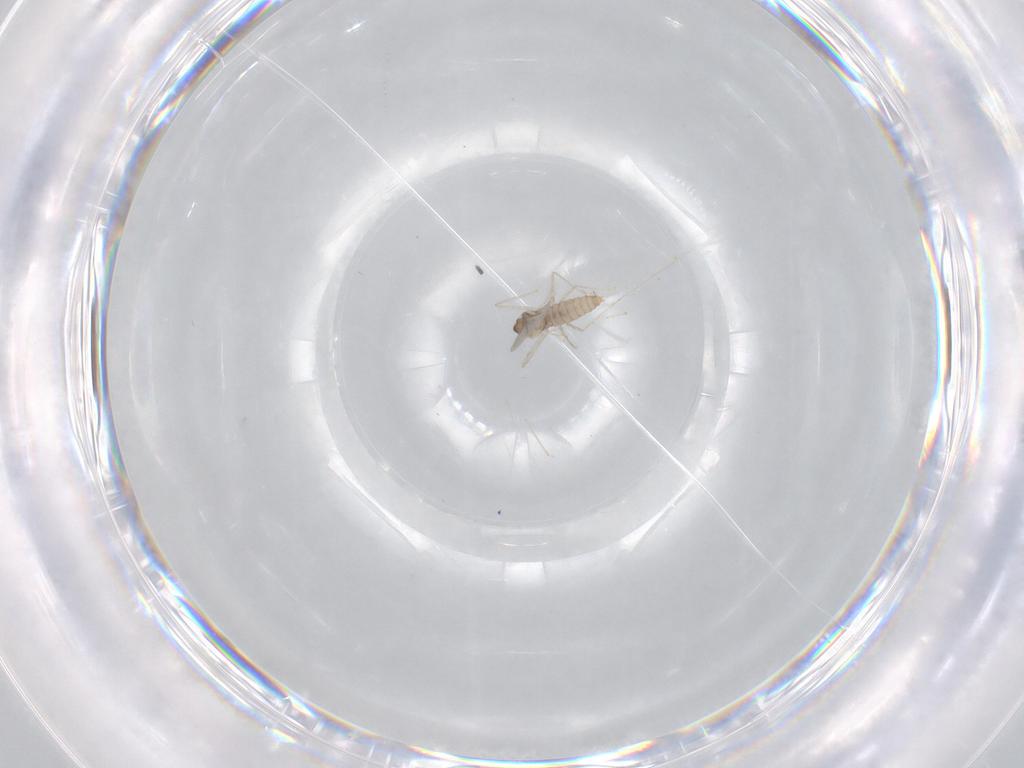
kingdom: Animalia
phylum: Arthropoda
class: Insecta
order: Diptera
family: Cecidomyiidae
